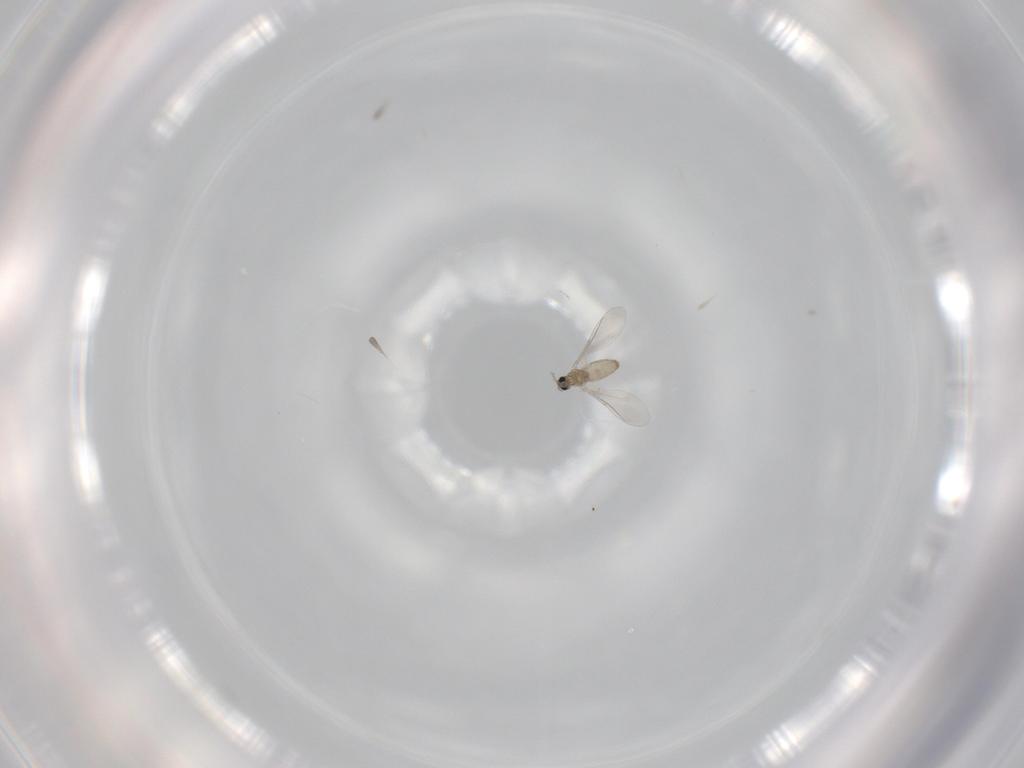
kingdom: Animalia
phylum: Arthropoda
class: Insecta
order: Diptera
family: Cecidomyiidae
